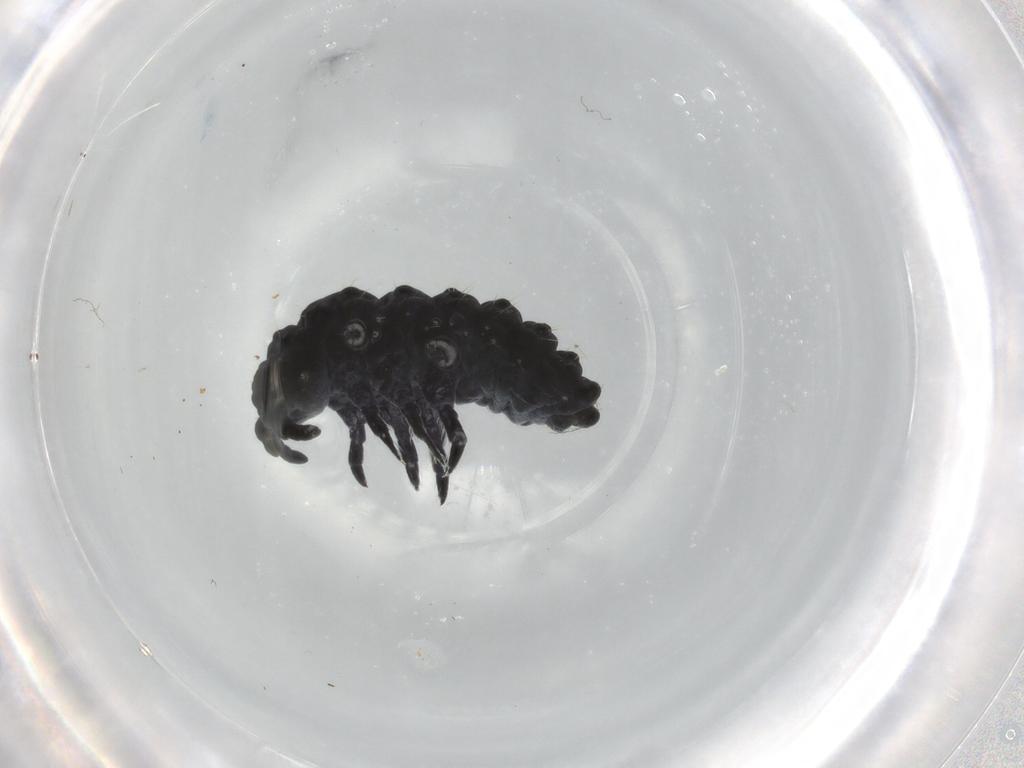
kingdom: Animalia
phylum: Arthropoda
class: Collembola
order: Poduromorpha
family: Neanuridae
